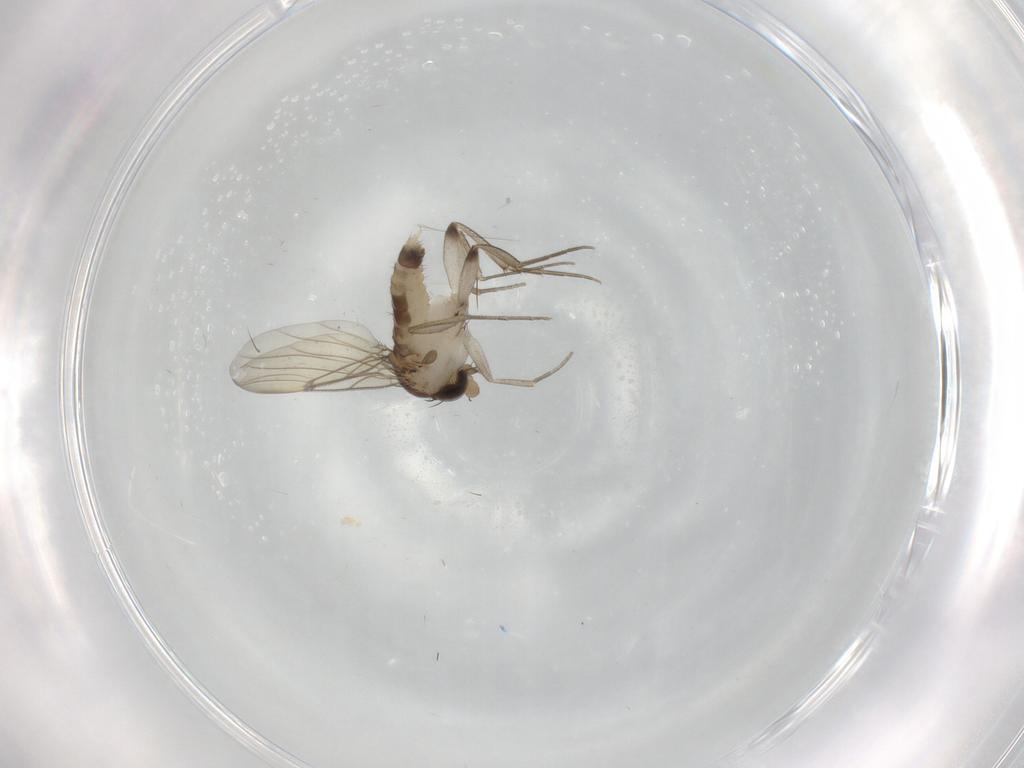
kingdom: Animalia
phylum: Arthropoda
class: Insecta
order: Diptera
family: Phoridae
